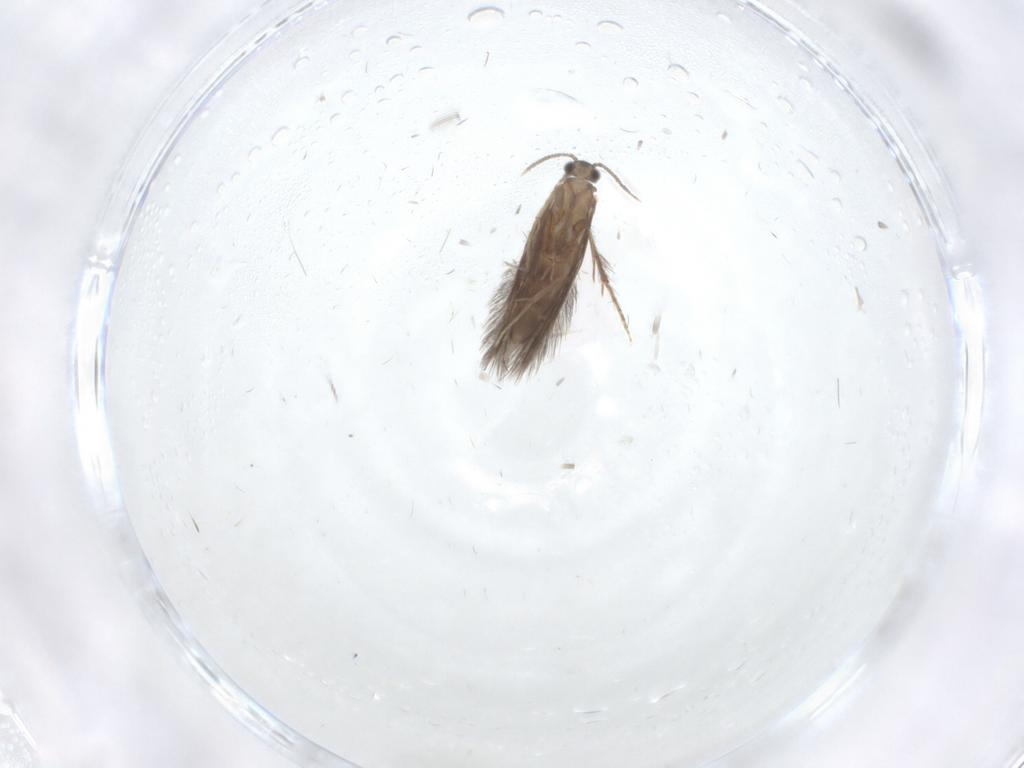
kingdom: Animalia
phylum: Arthropoda
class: Insecta
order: Trichoptera
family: Hydroptilidae
